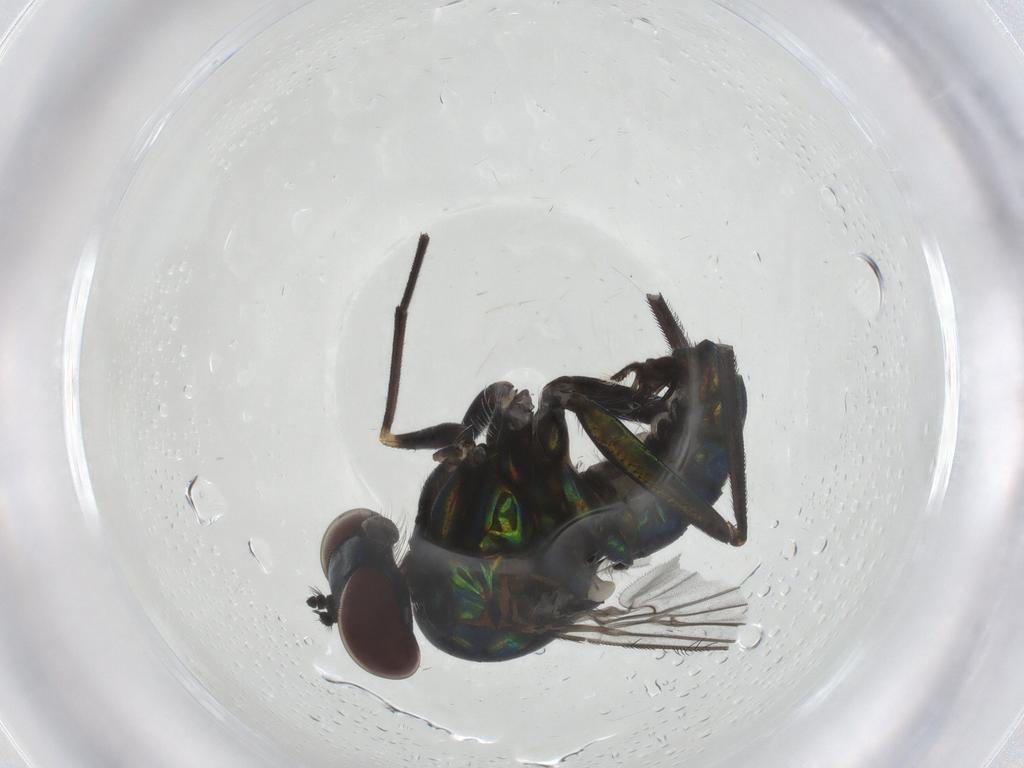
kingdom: Animalia
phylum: Arthropoda
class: Insecta
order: Diptera
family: Dolichopodidae
